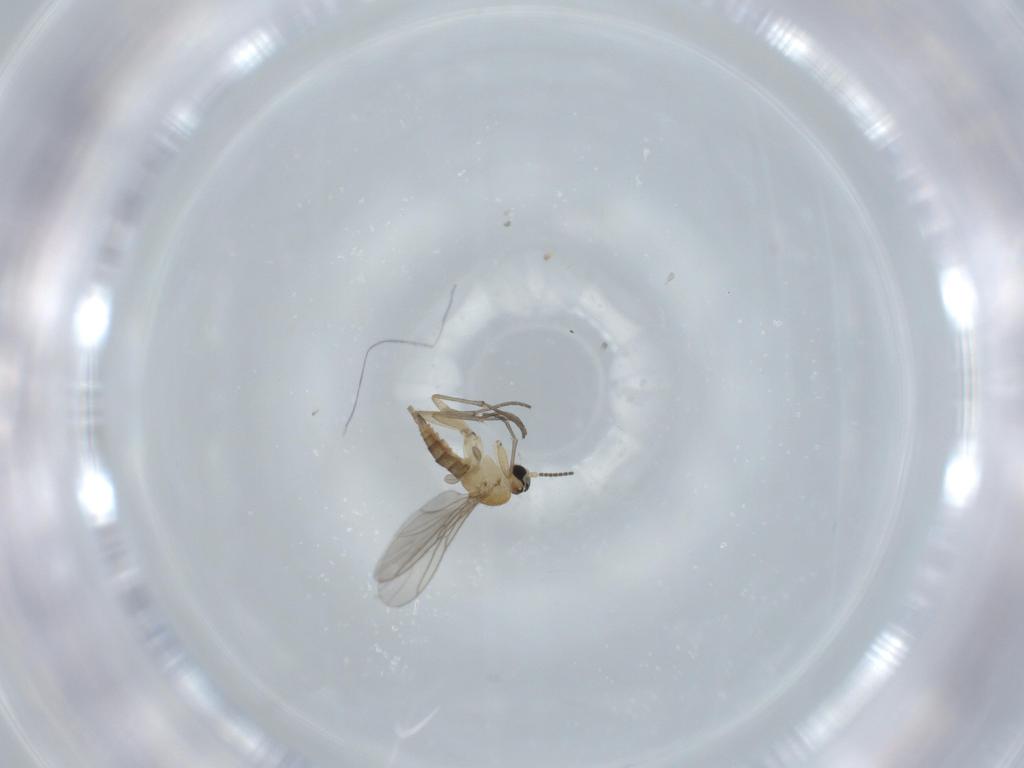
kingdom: Animalia
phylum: Arthropoda
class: Insecta
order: Diptera
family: Sciaridae
